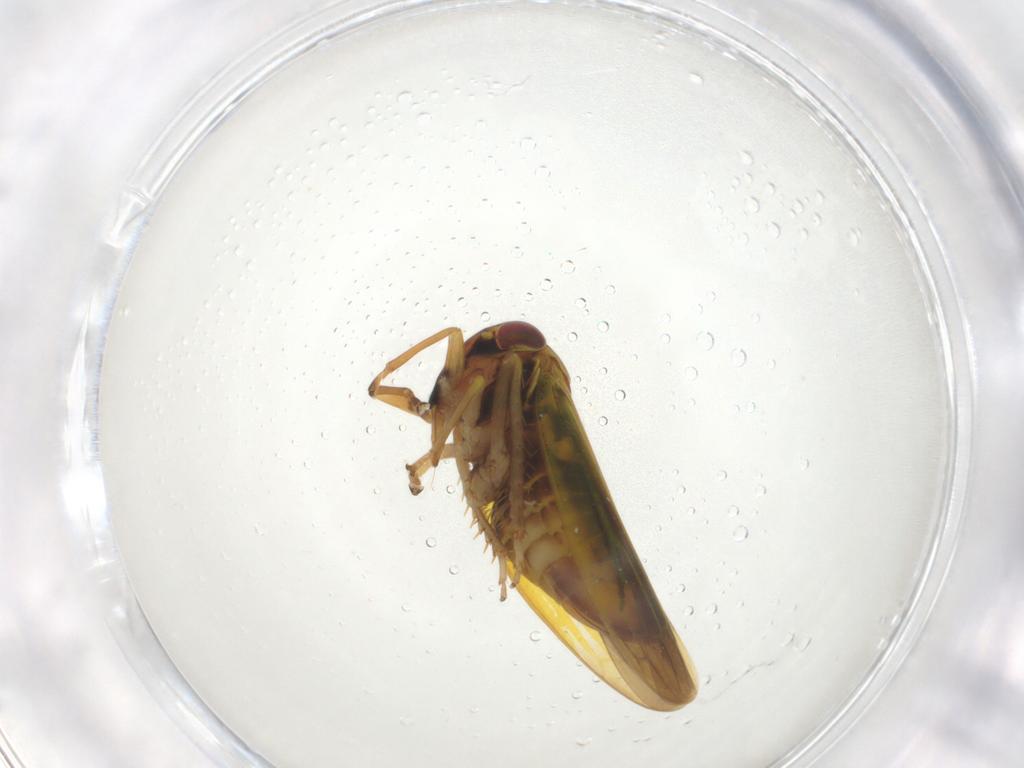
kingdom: Animalia
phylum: Arthropoda
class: Insecta
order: Hemiptera
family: Cicadellidae
